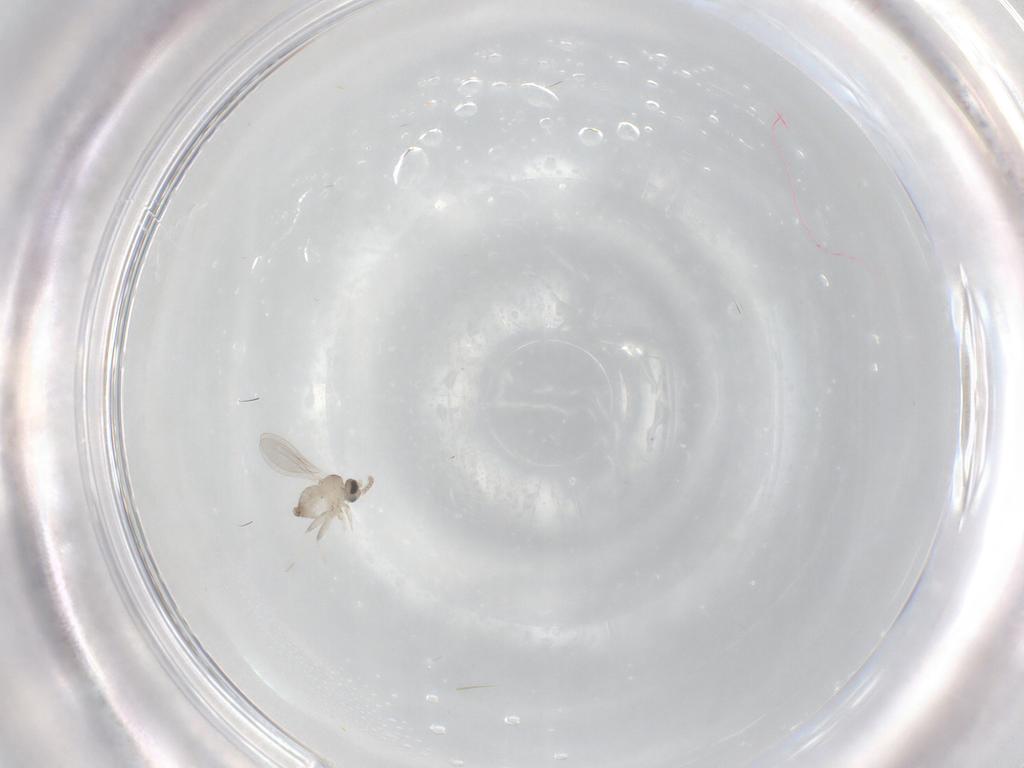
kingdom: Animalia
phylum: Arthropoda
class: Insecta
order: Diptera
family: Cecidomyiidae
